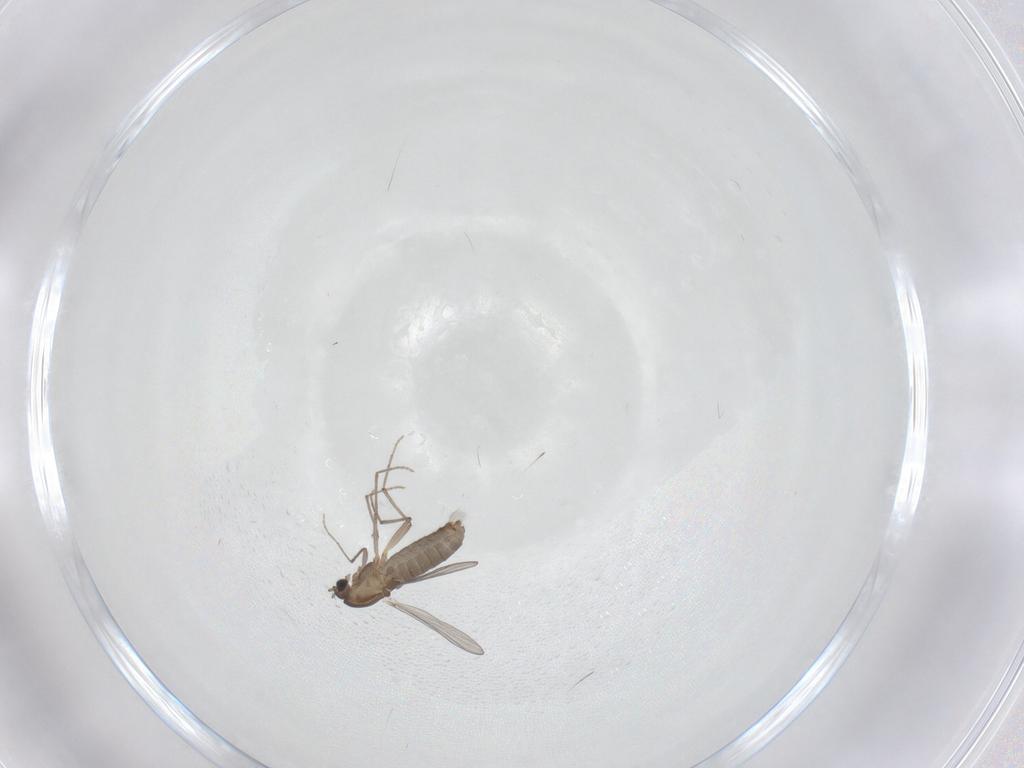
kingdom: Animalia
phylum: Arthropoda
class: Insecta
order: Diptera
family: Chironomidae
